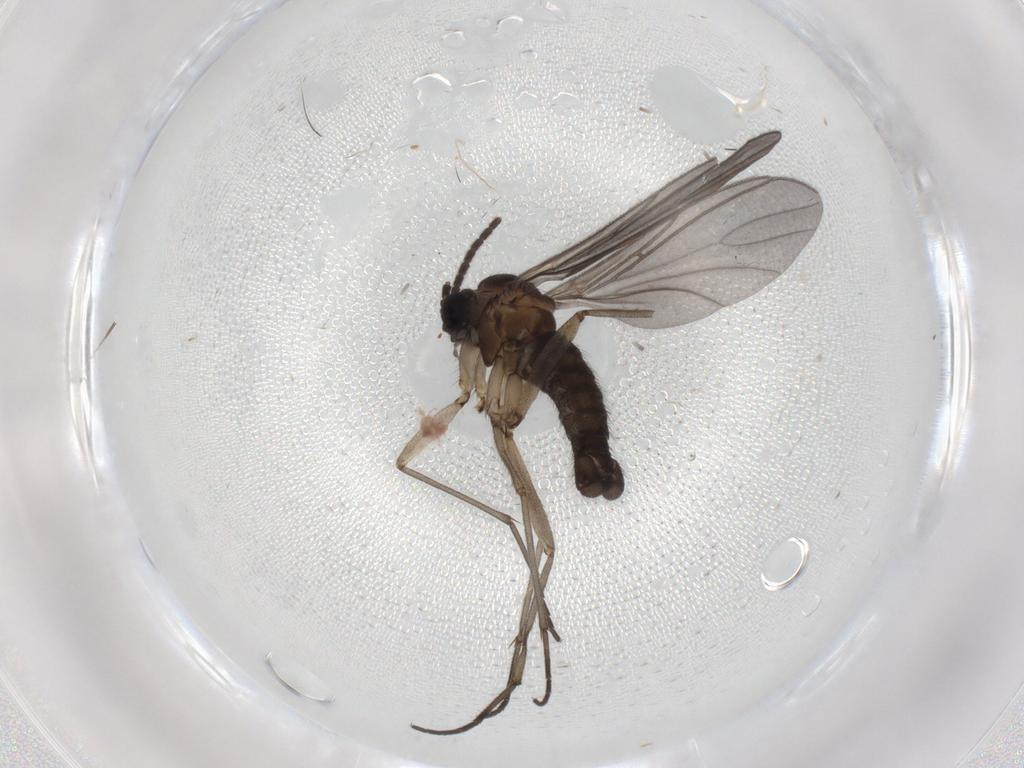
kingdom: Animalia
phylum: Arthropoda
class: Insecta
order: Diptera
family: Sciaridae
